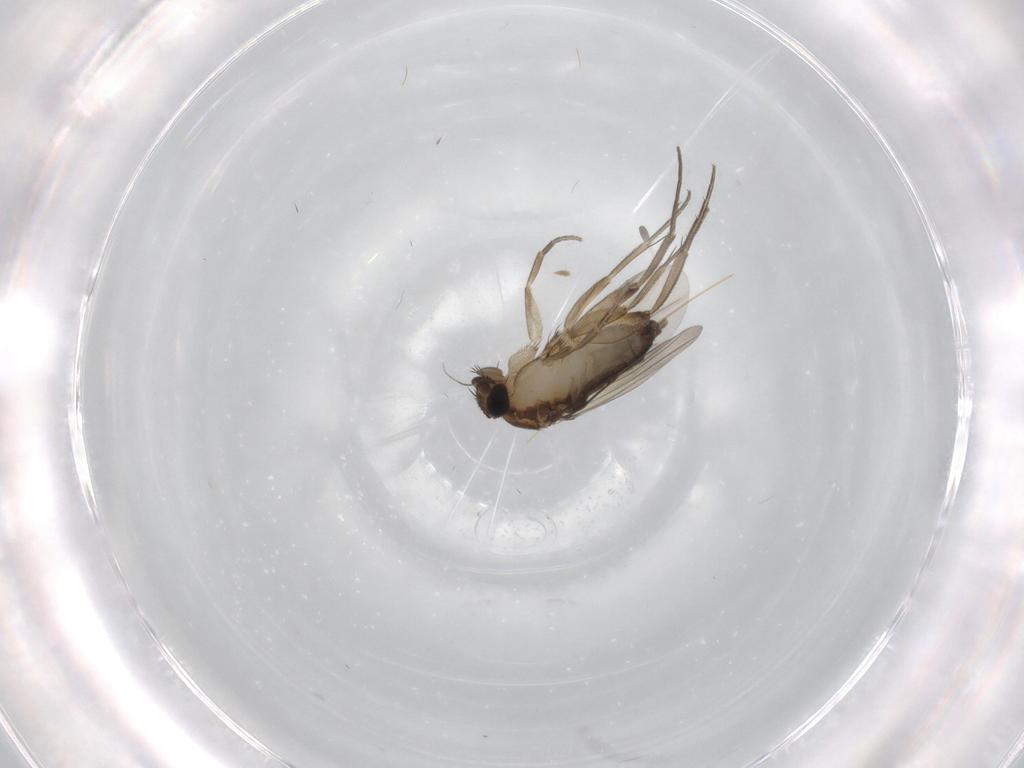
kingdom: Animalia
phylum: Arthropoda
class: Insecta
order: Diptera
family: Phoridae
